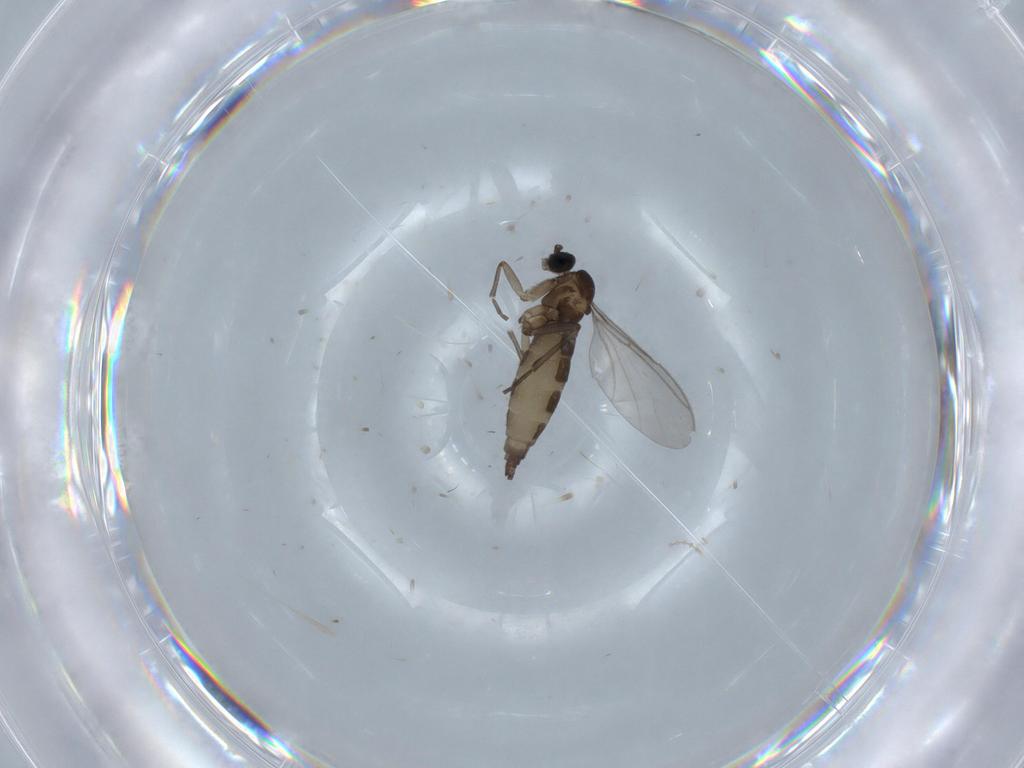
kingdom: Animalia
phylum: Arthropoda
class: Insecta
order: Diptera
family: Cecidomyiidae
